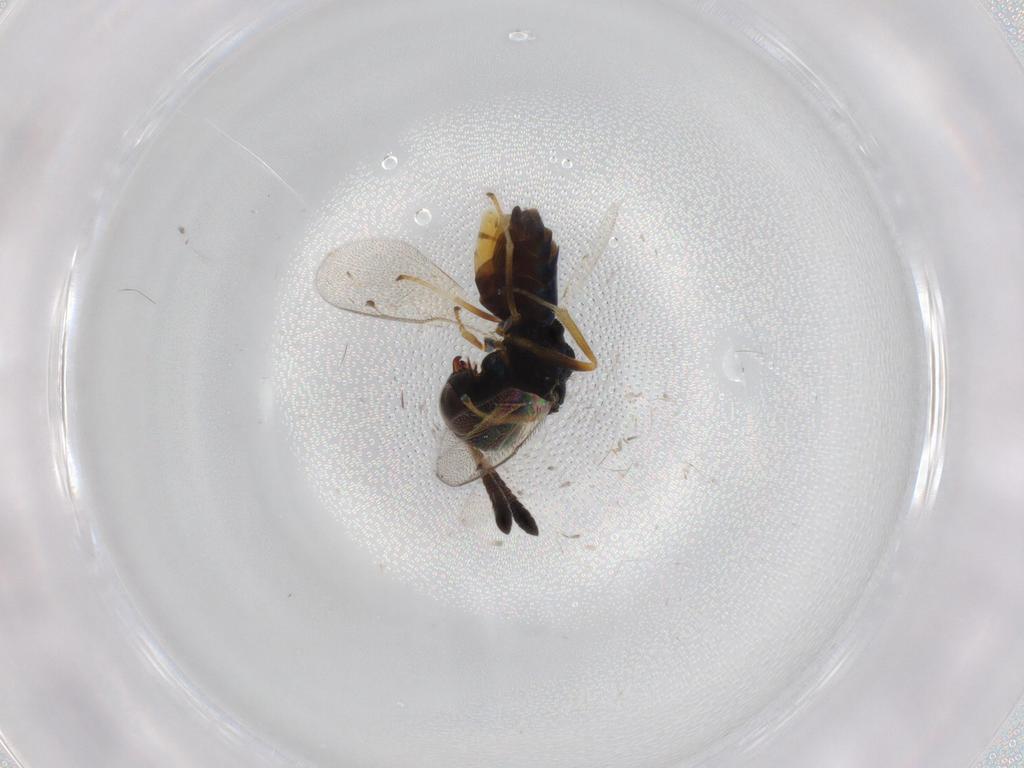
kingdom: Animalia
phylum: Arthropoda
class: Insecta
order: Hymenoptera
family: Agaonidae
